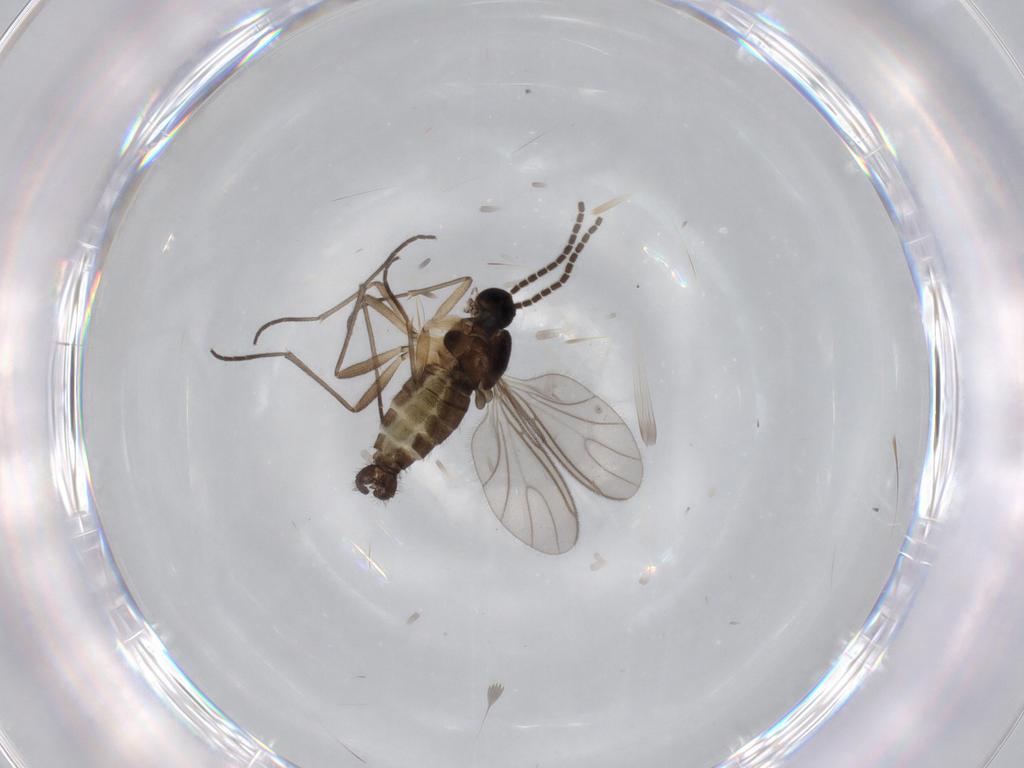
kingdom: Animalia
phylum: Arthropoda
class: Insecta
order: Diptera
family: Sciaridae
